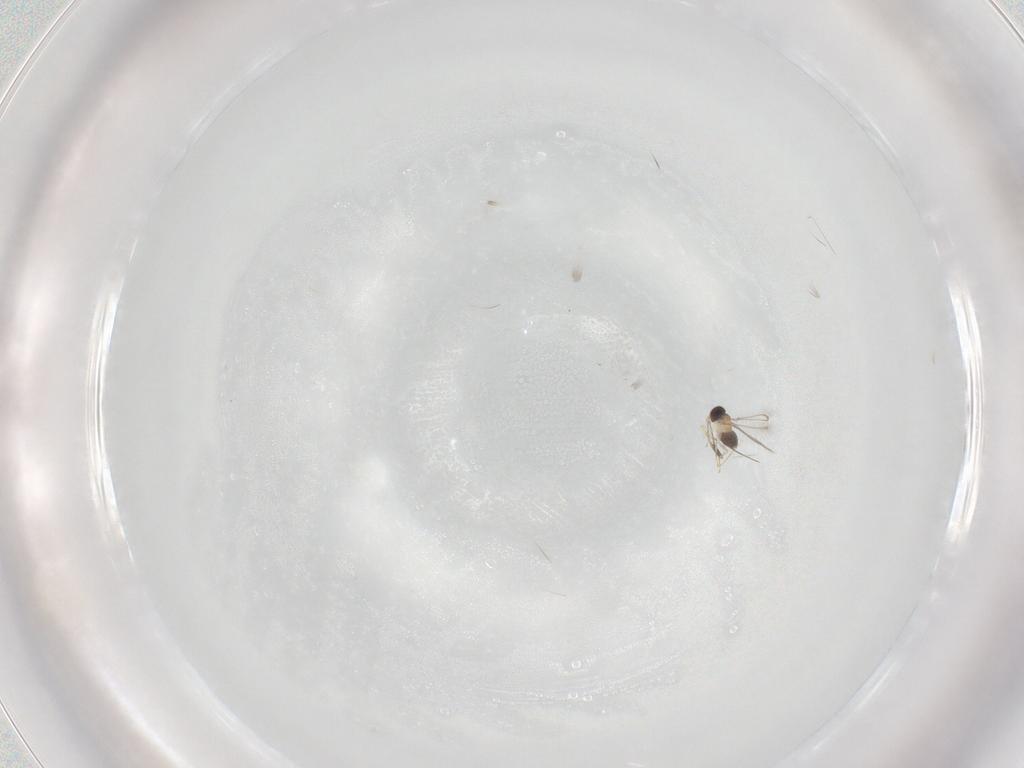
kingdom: Animalia
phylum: Arthropoda
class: Insecta
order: Hymenoptera
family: Mymaridae
